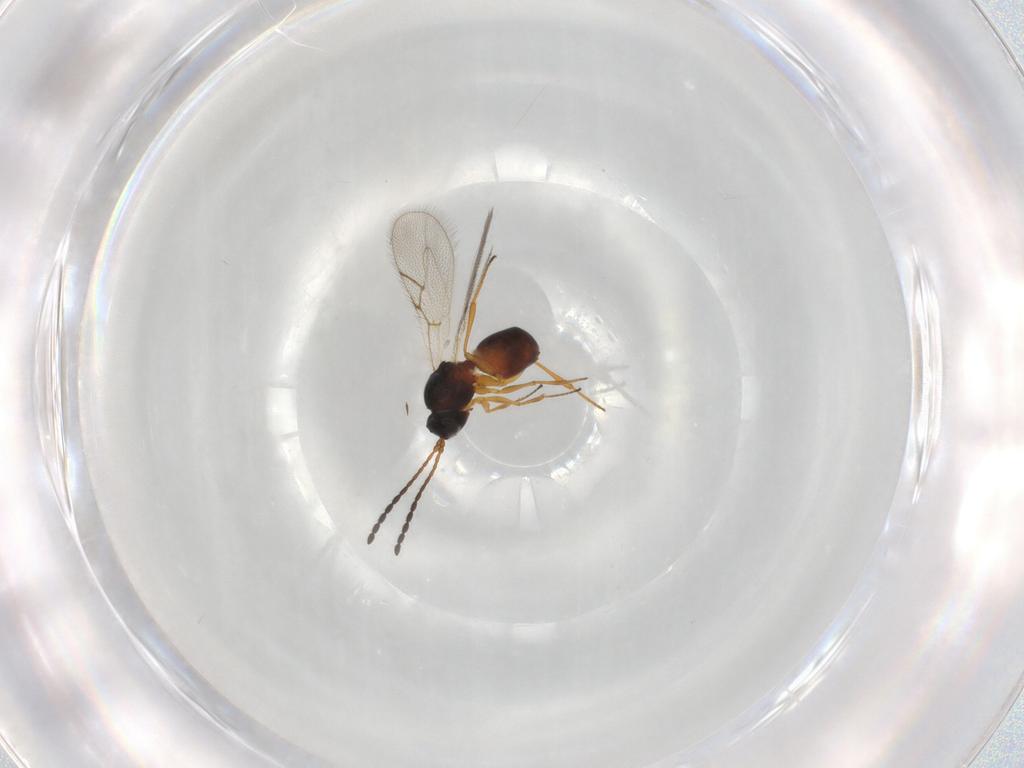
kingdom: Animalia
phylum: Arthropoda
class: Insecta
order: Hymenoptera
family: Figitidae
